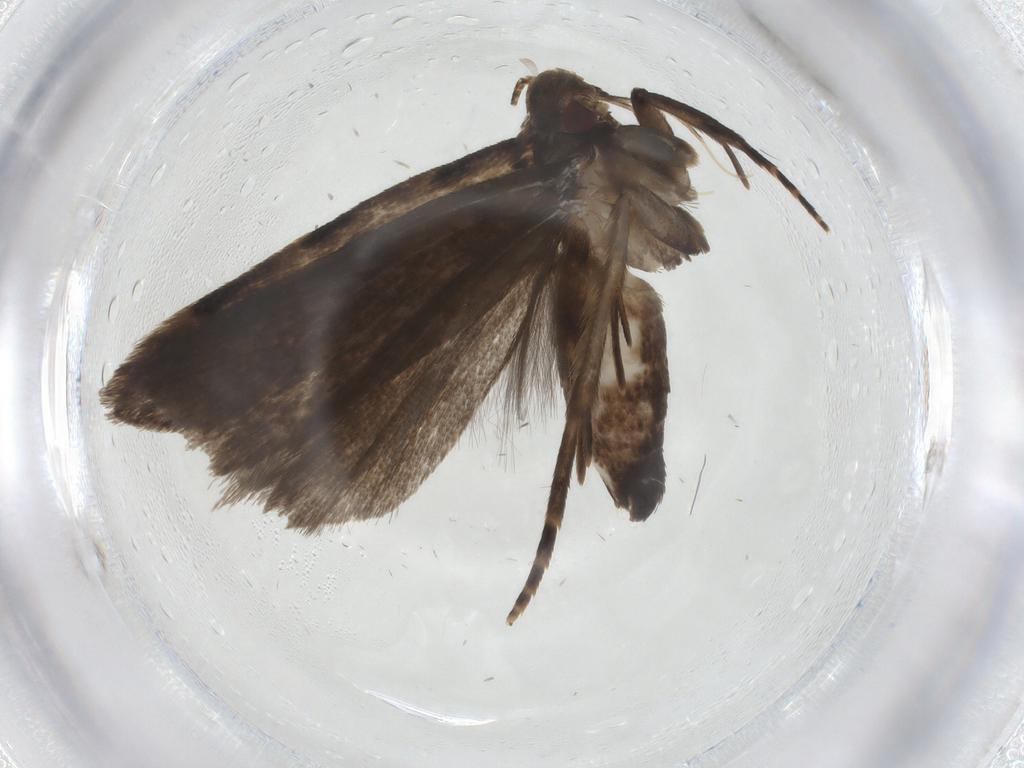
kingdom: Animalia
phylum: Arthropoda
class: Insecta
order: Lepidoptera
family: Gelechiidae
